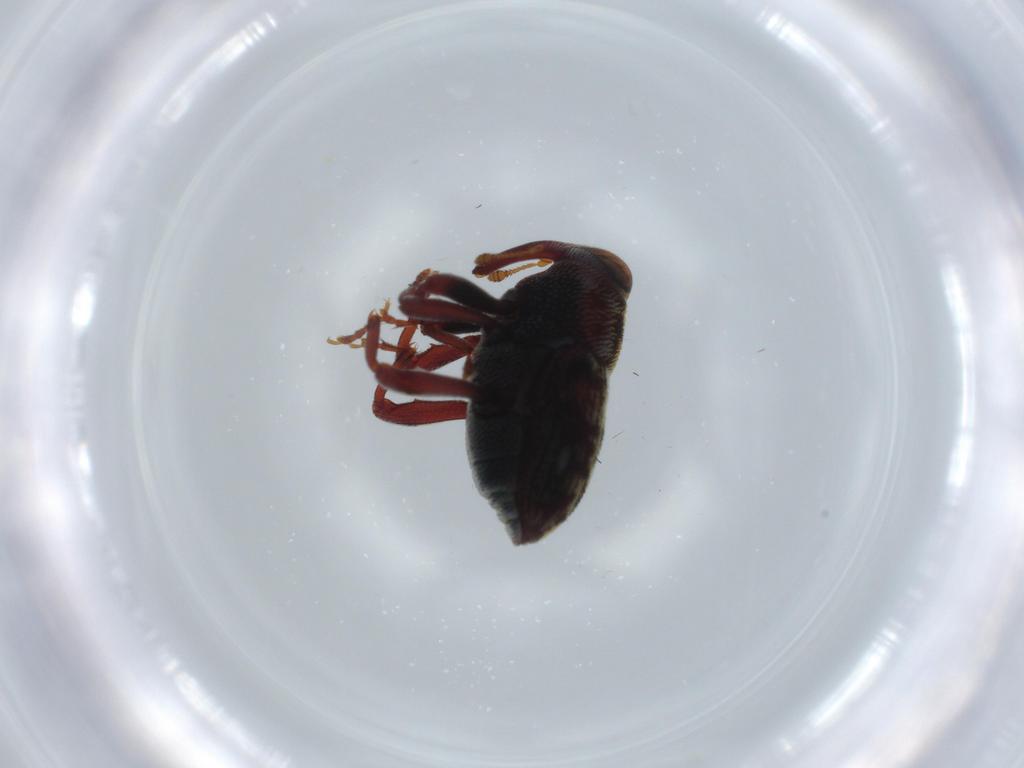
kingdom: Animalia
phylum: Arthropoda
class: Insecta
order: Coleoptera
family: Curculionidae
